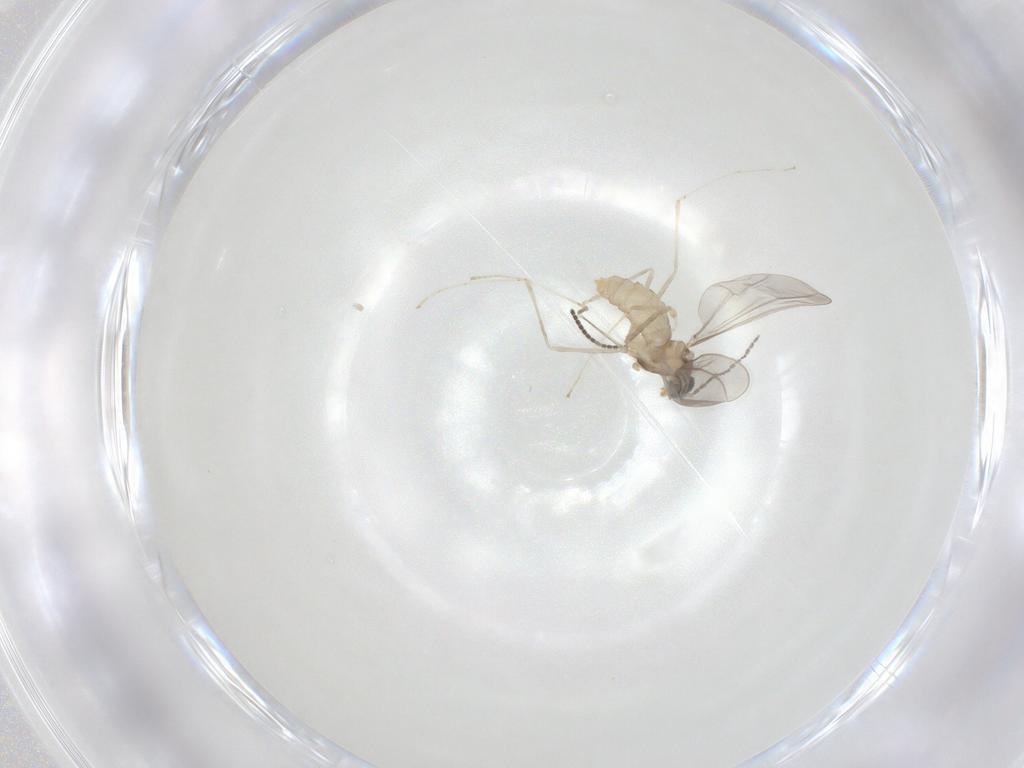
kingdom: Animalia
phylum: Arthropoda
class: Insecta
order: Diptera
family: Cecidomyiidae
